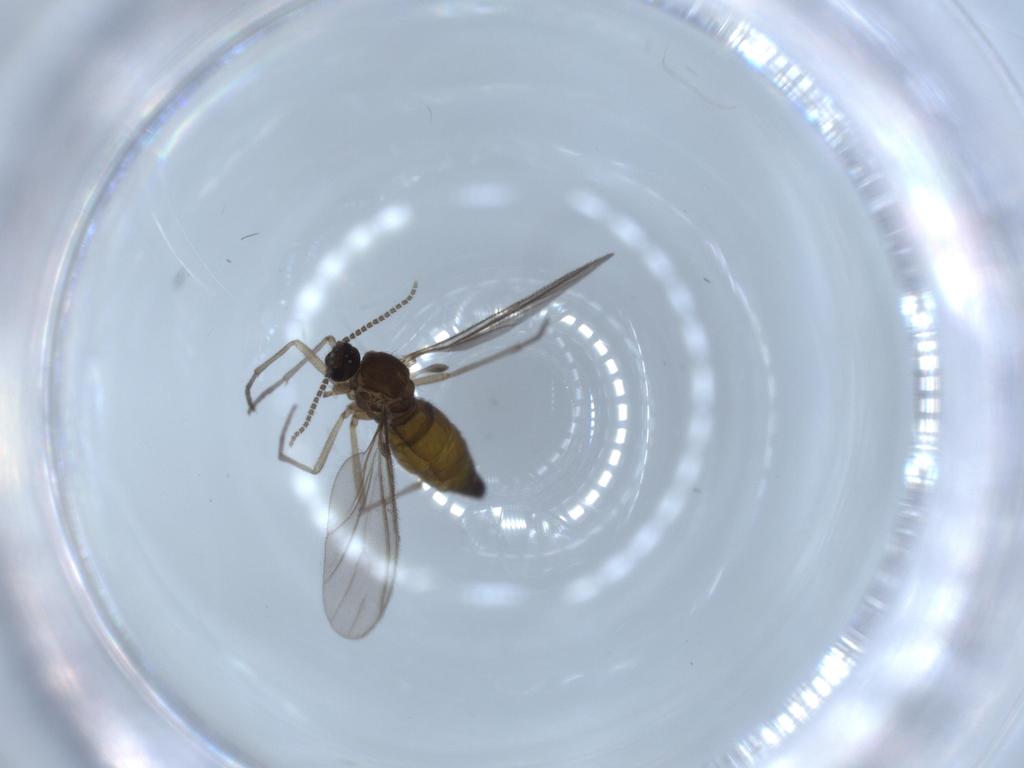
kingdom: Animalia
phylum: Arthropoda
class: Insecta
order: Diptera
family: Sciaridae
